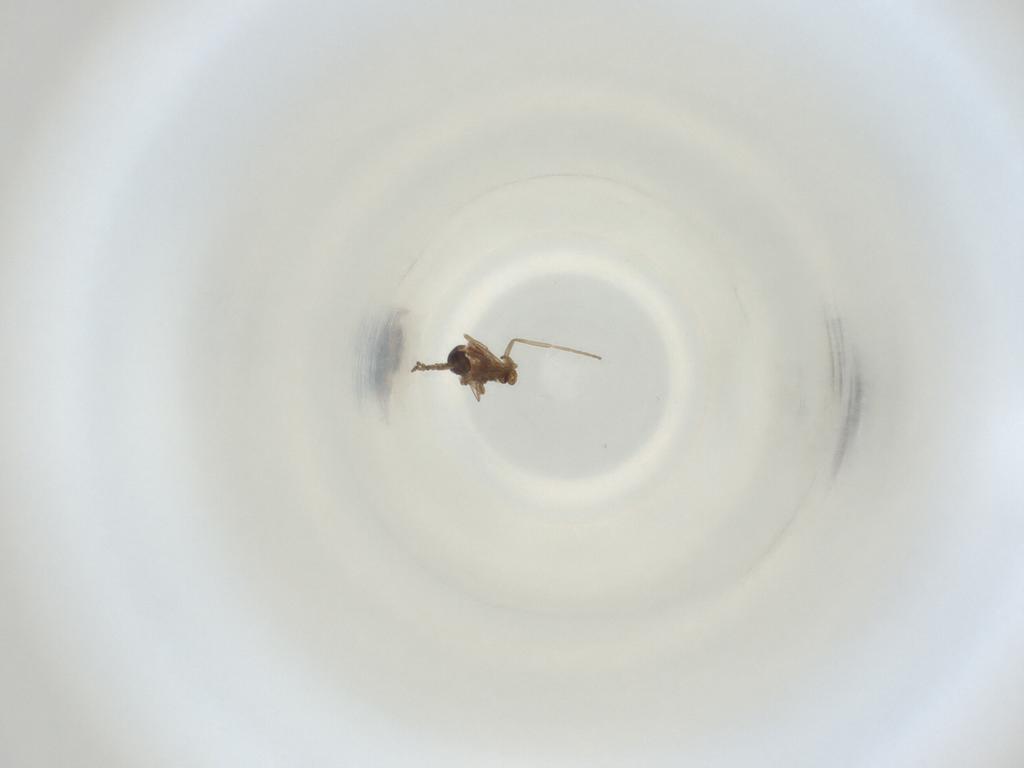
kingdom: Animalia
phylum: Arthropoda
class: Insecta
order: Diptera
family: Cecidomyiidae
